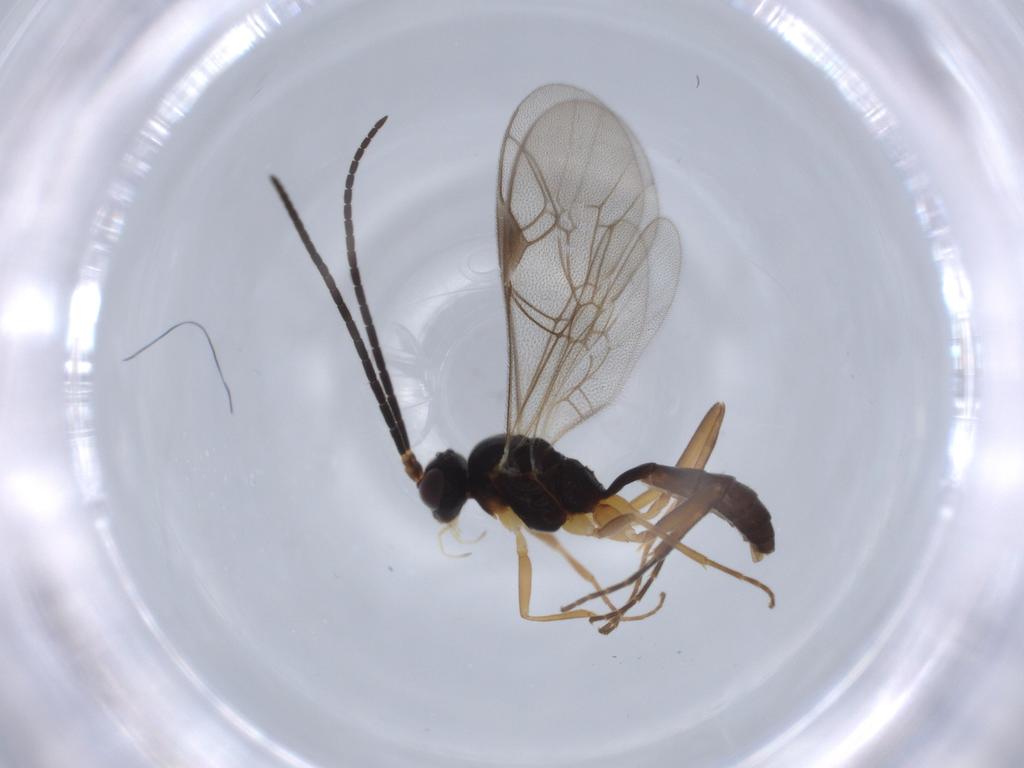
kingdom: Animalia
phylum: Arthropoda
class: Insecta
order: Hymenoptera
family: Ichneumonidae
